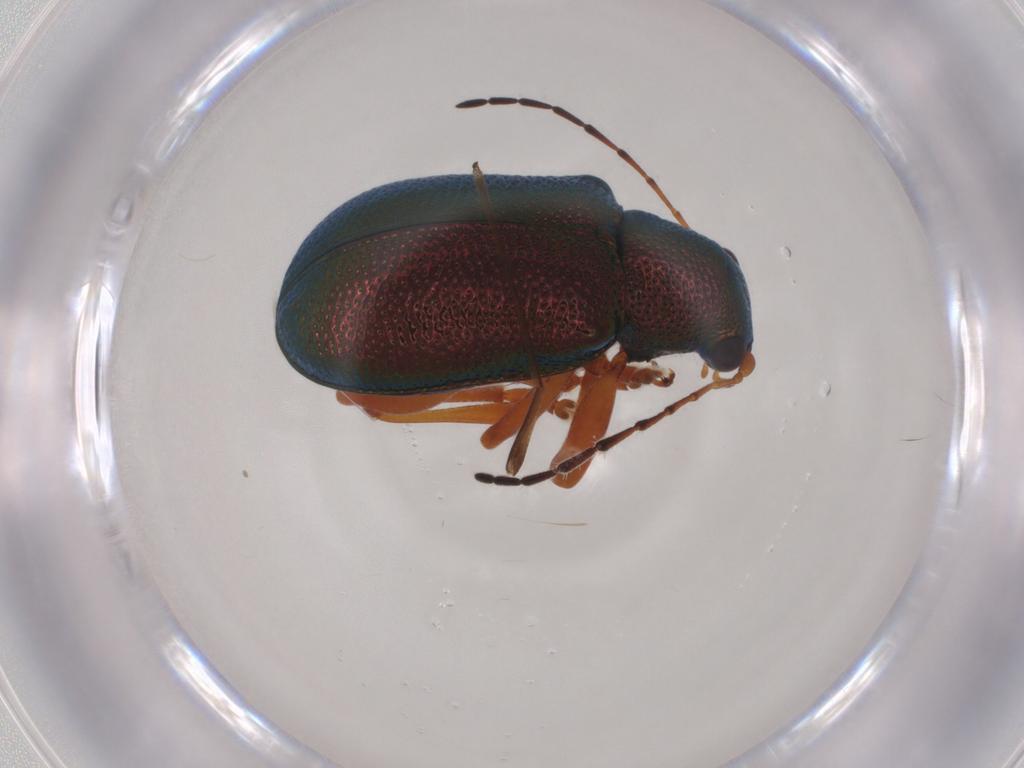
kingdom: Animalia
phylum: Arthropoda
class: Insecta
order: Coleoptera
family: Chrysomelidae
